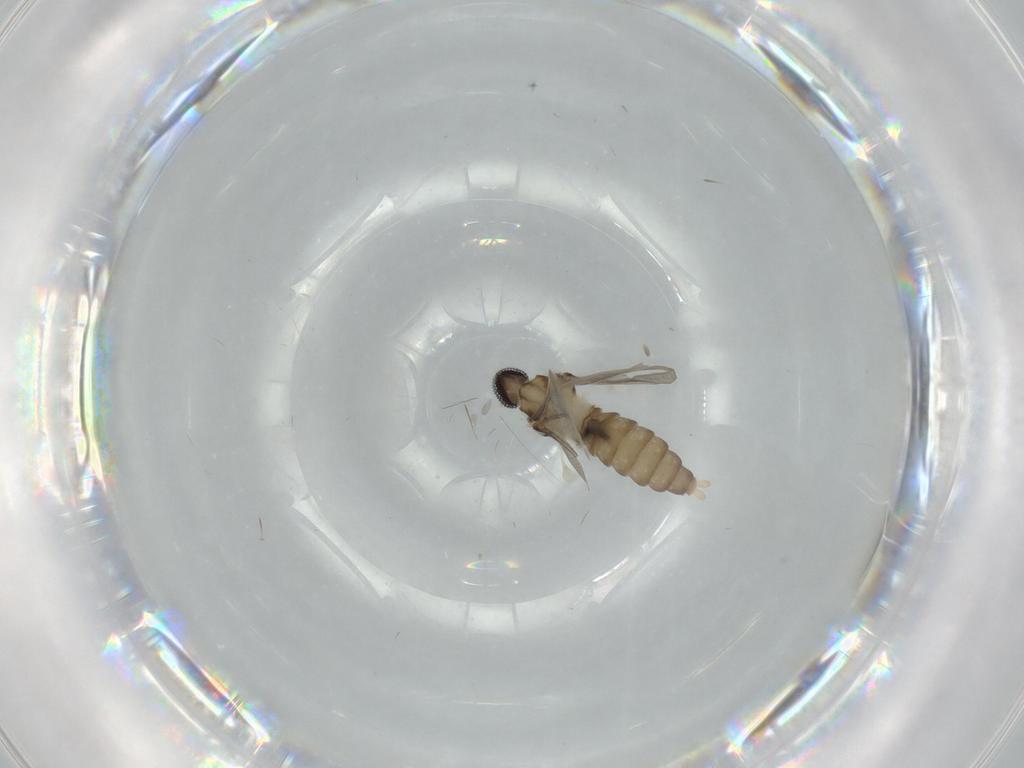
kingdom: Animalia
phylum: Arthropoda
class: Insecta
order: Diptera
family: Cecidomyiidae
